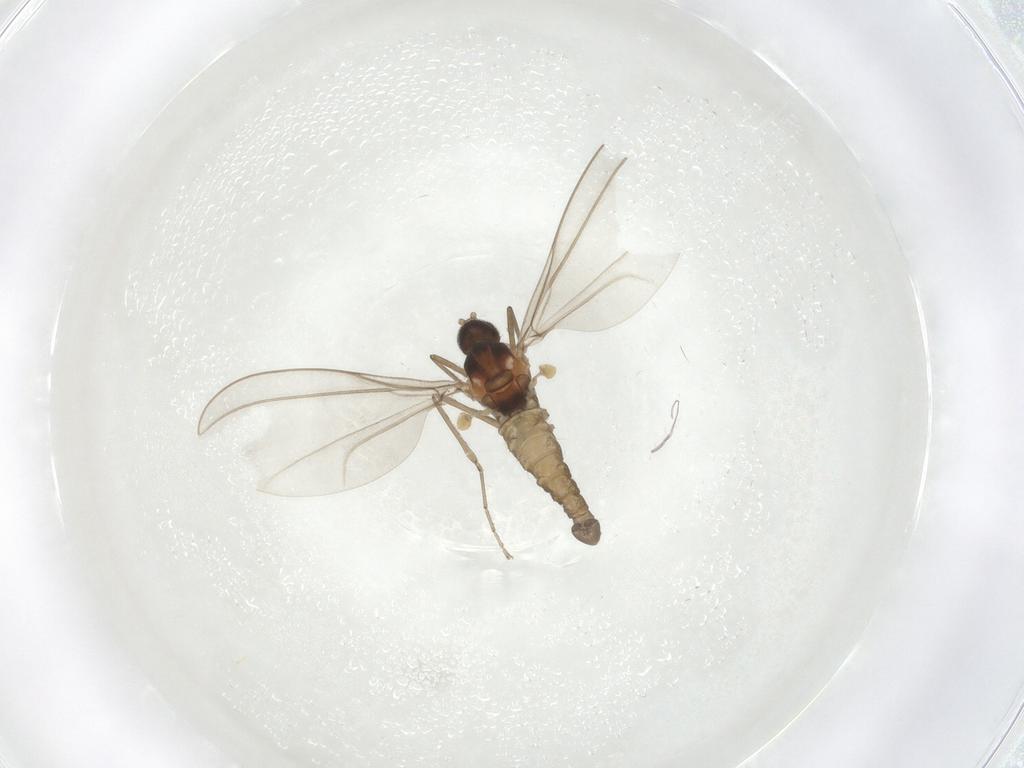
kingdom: Animalia
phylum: Arthropoda
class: Insecta
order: Diptera
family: Cecidomyiidae
